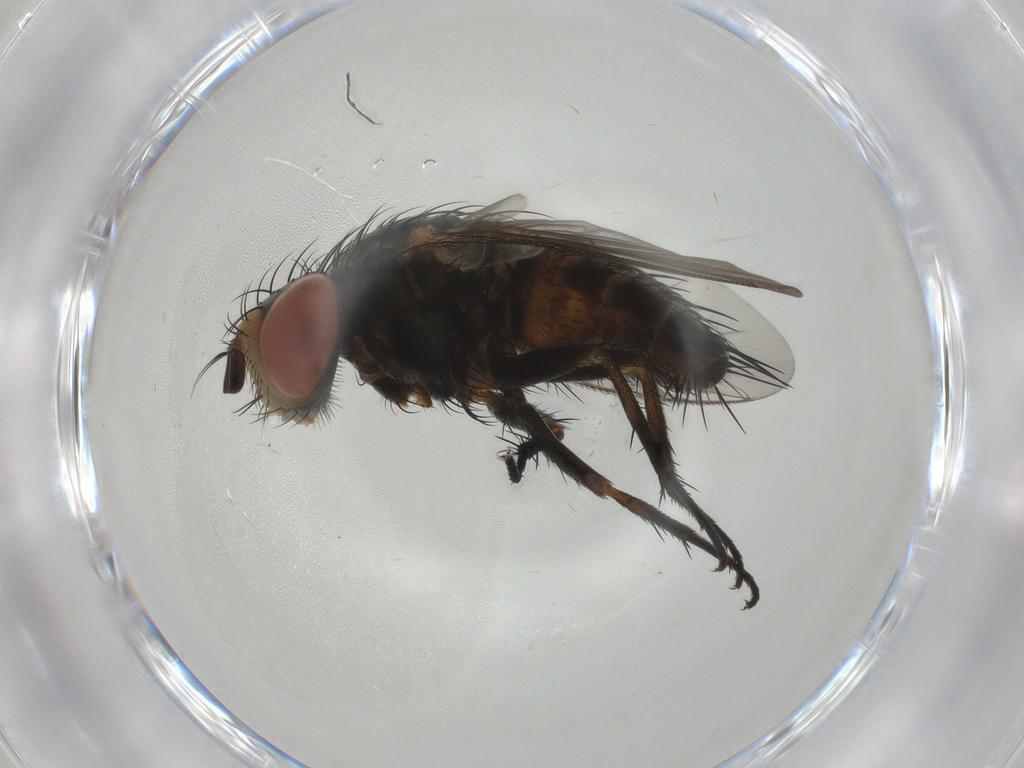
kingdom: Animalia
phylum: Arthropoda
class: Insecta
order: Diptera
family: Sarcophagidae
